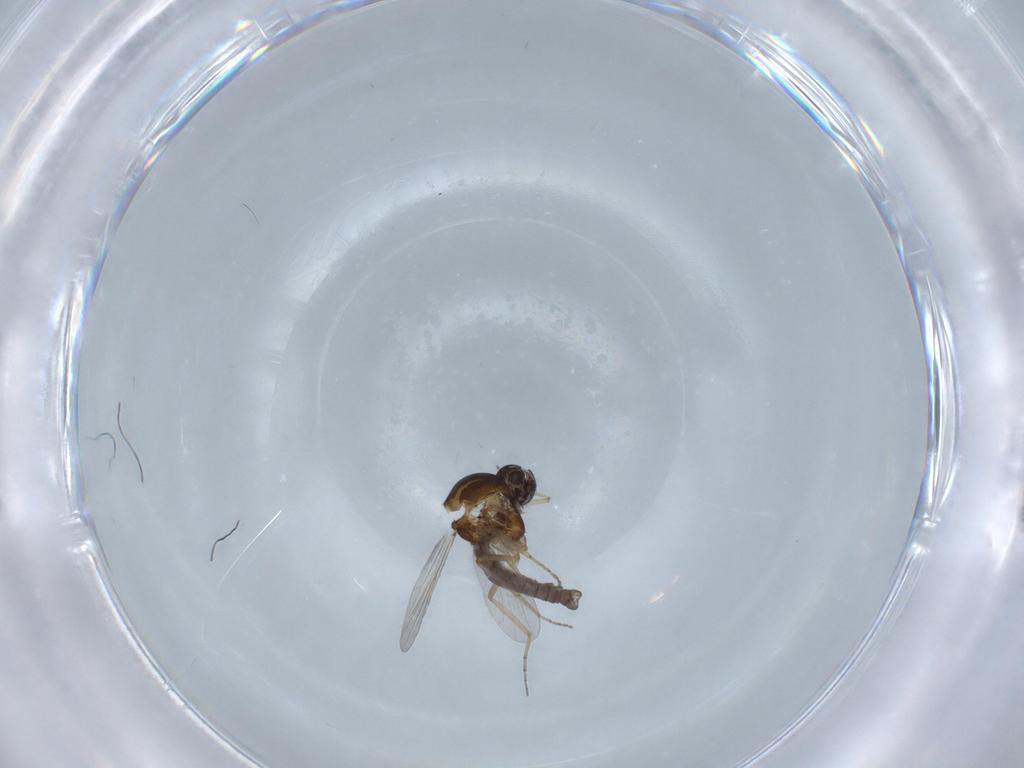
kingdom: Animalia
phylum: Arthropoda
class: Insecta
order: Diptera
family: Ceratopogonidae
